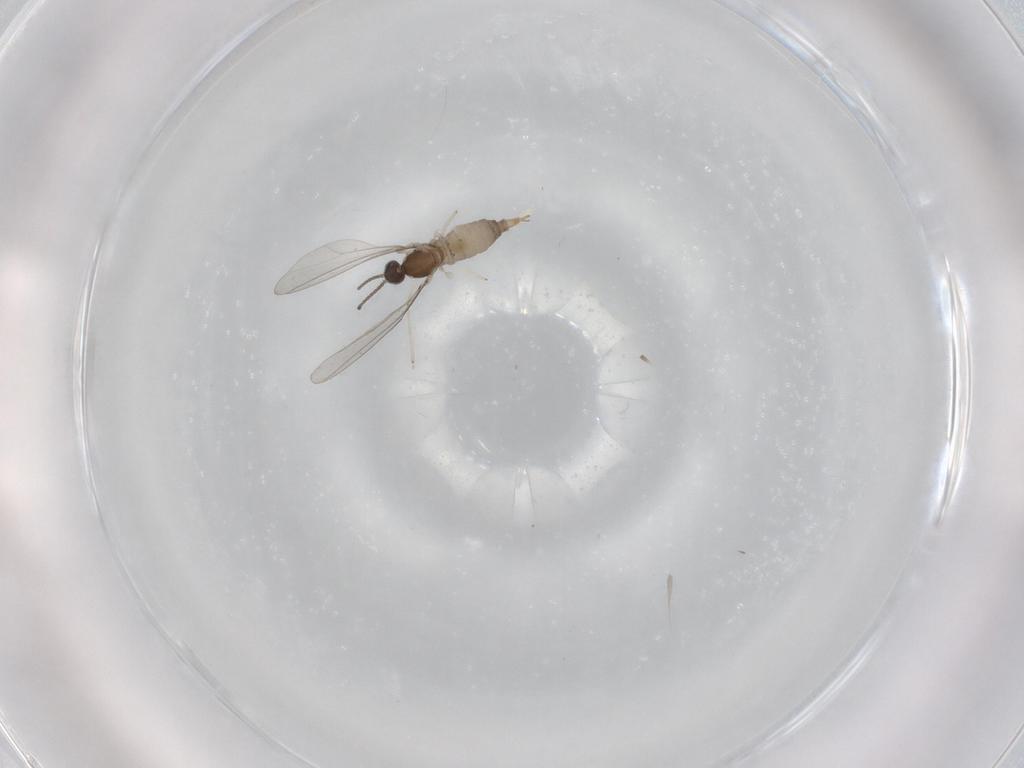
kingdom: Animalia
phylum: Arthropoda
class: Insecta
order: Diptera
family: Cecidomyiidae
